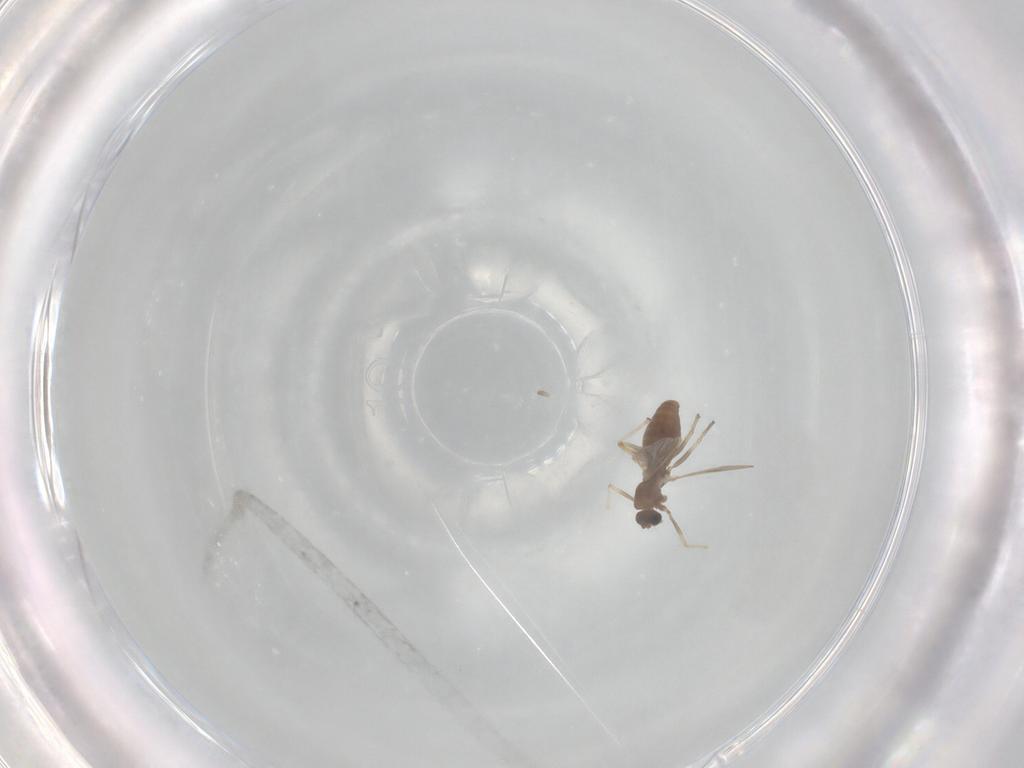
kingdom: Animalia
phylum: Arthropoda
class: Insecta
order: Diptera
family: Chironomidae
